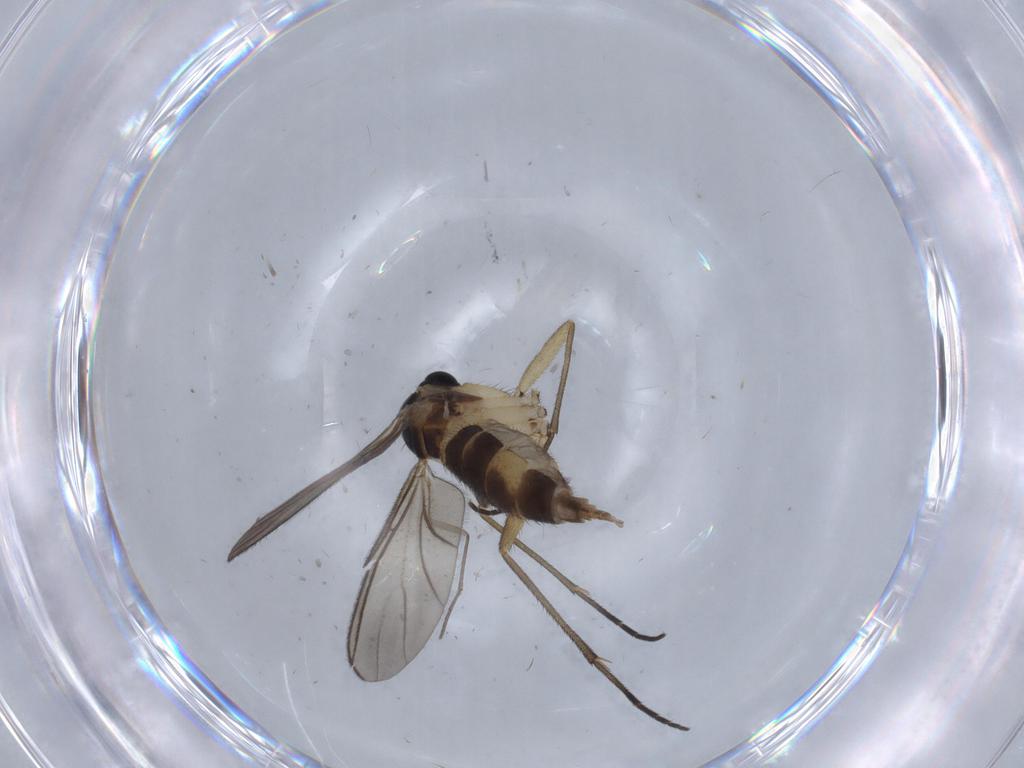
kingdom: Animalia
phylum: Arthropoda
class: Insecta
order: Diptera
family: Sciaridae
